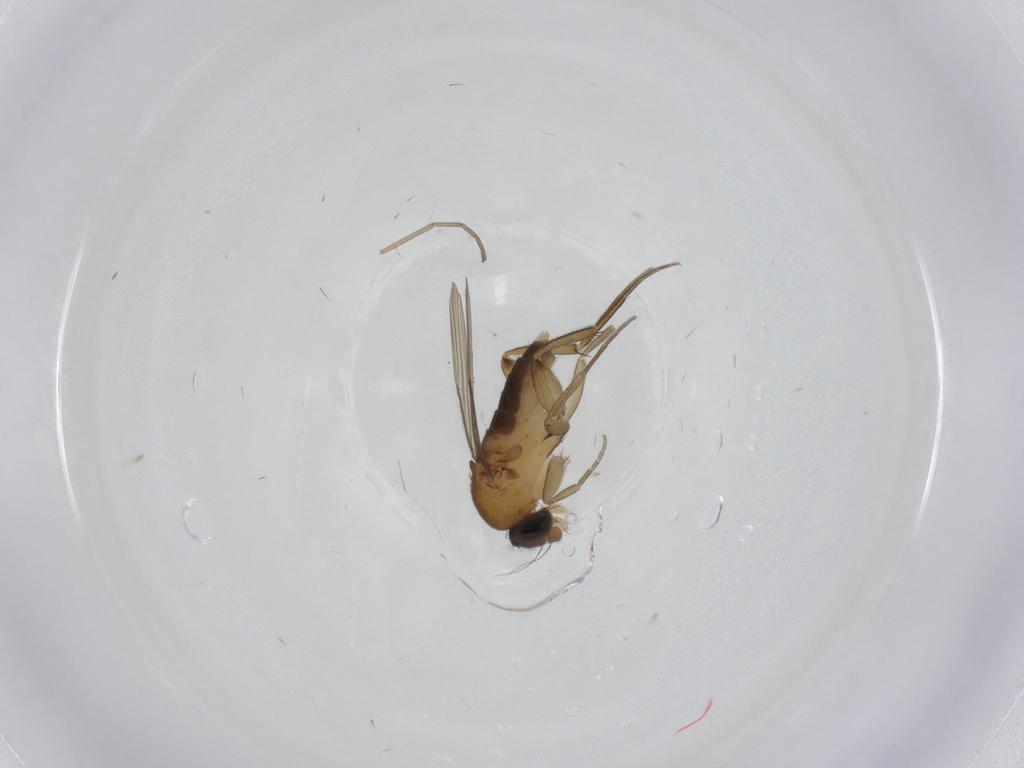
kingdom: Animalia
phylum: Arthropoda
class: Insecta
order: Diptera
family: Phoridae
